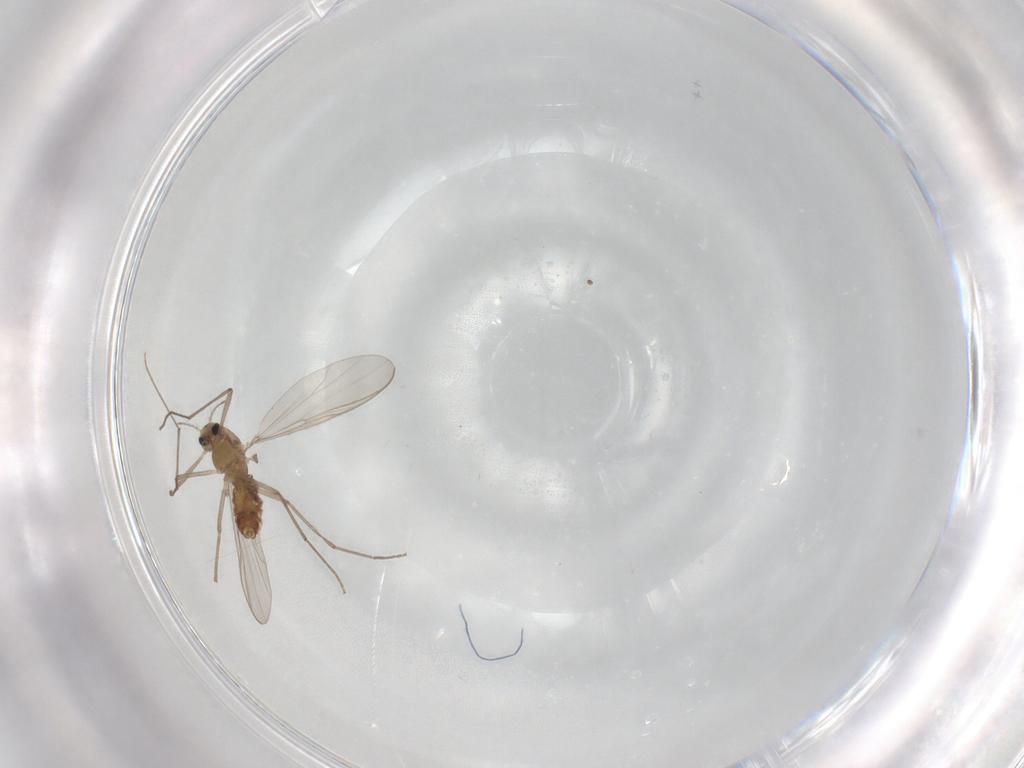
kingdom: Animalia
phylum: Arthropoda
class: Insecta
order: Diptera
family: Chironomidae
